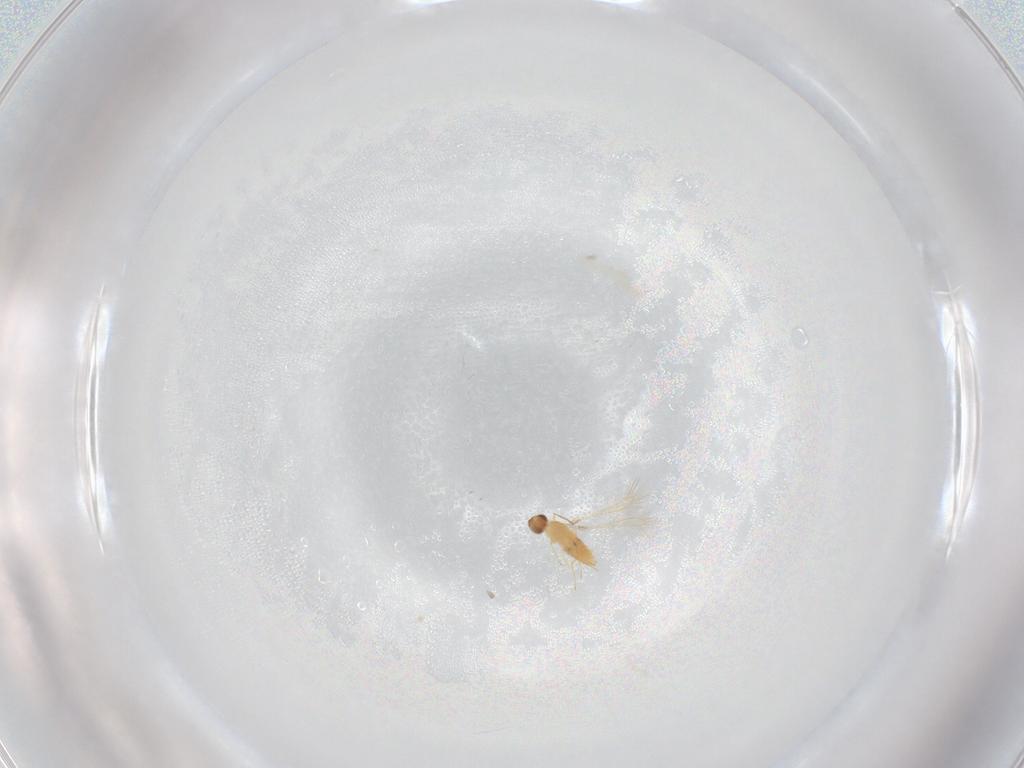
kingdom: Animalia
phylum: Arthropoda
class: Insecta
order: Hymenoptera
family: Mymaridae
